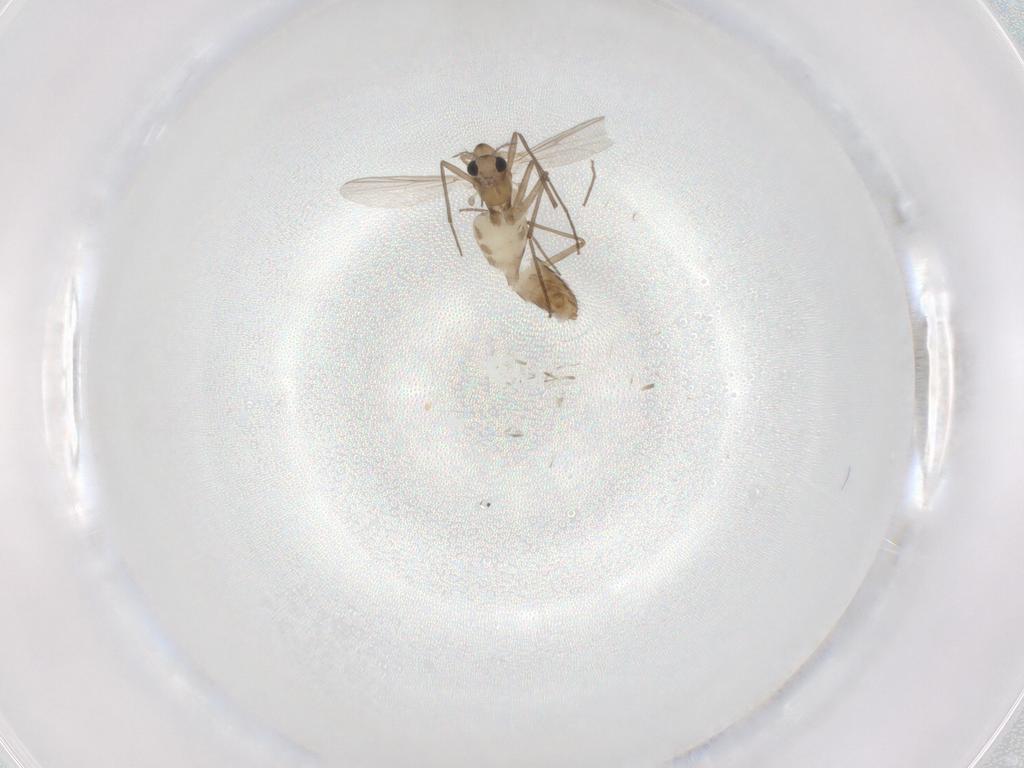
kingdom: Animalia
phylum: Arthropoda
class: Insecta
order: Diptera
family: Chironomidae
